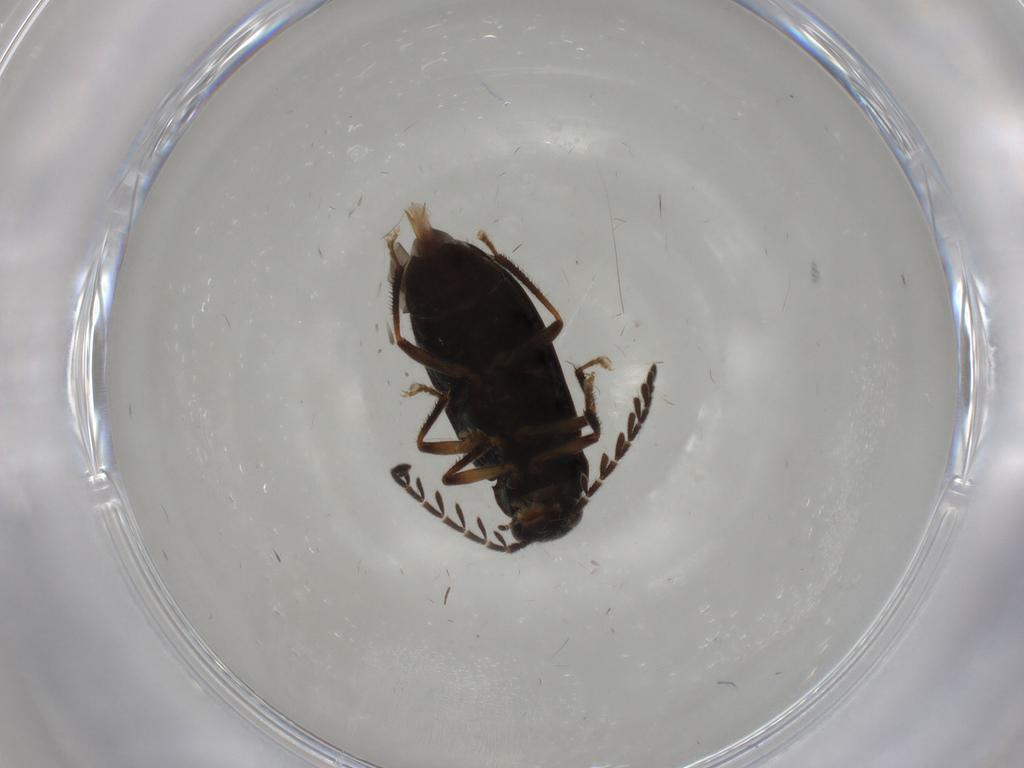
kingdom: Animalia
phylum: Arthropoda
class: Insecta
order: Coleoptera
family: Ptilodactylidae
